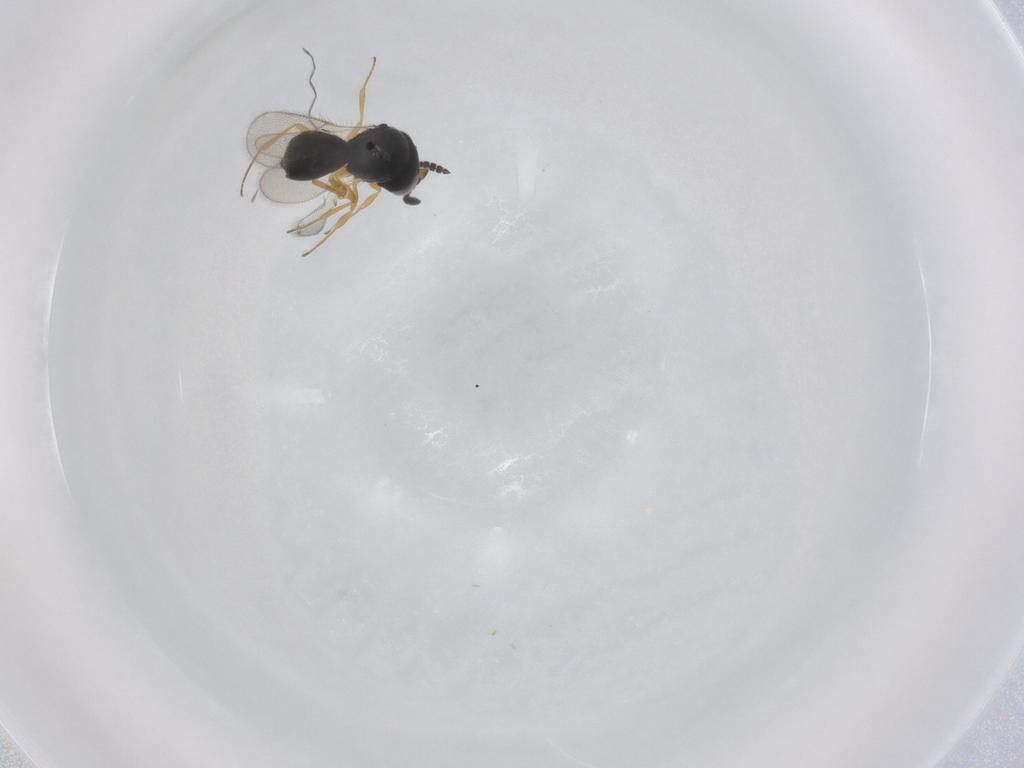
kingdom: Animalia
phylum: Arthropoda
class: Insecta
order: Hymenoptera
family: Scelionidae
